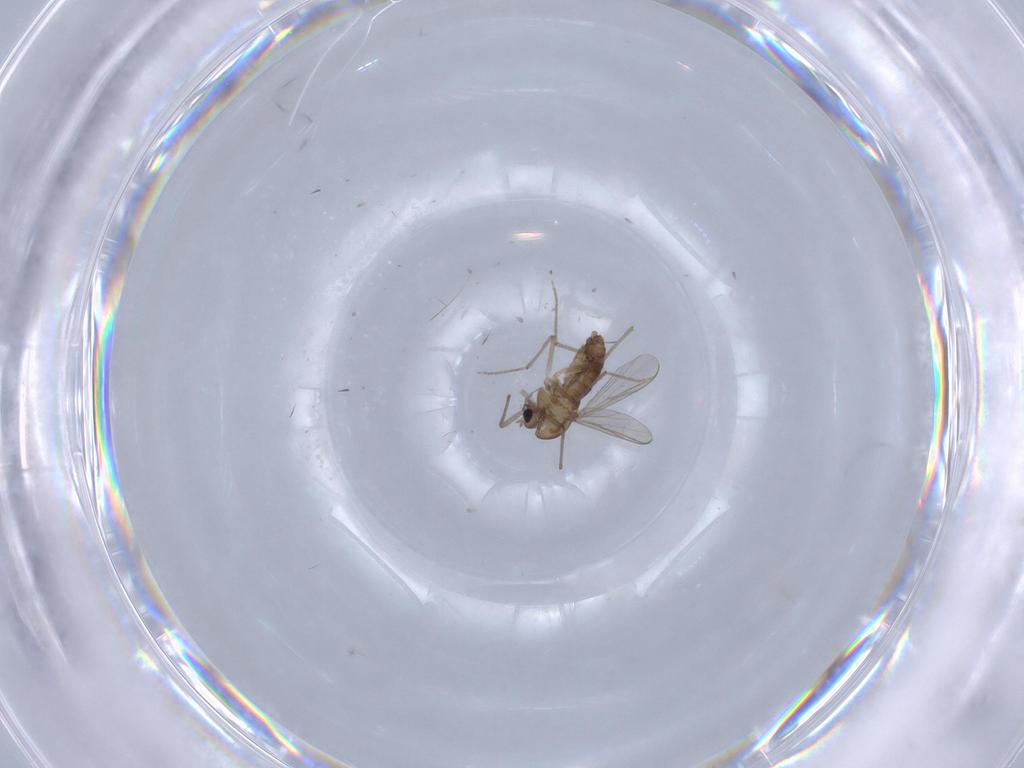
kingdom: Animalia
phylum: Arthropoda
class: Insecta
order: Diptera
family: Chironomidae
